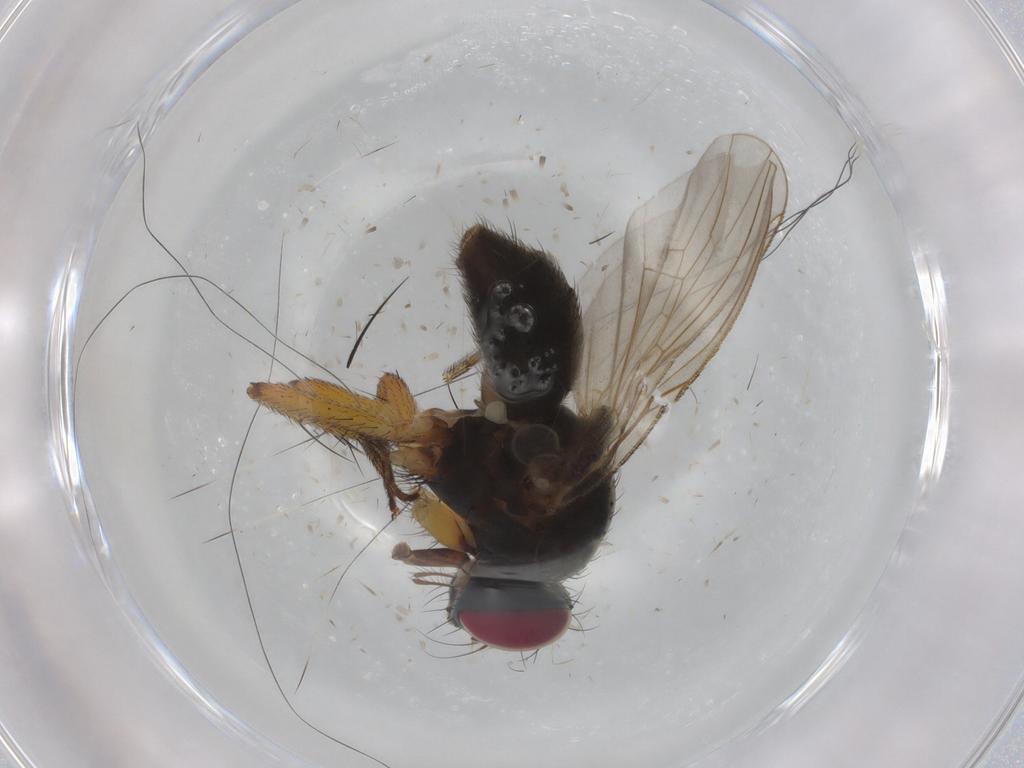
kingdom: Animalia
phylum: Arthropoda
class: Insecta
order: Diptera
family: Muscidae
